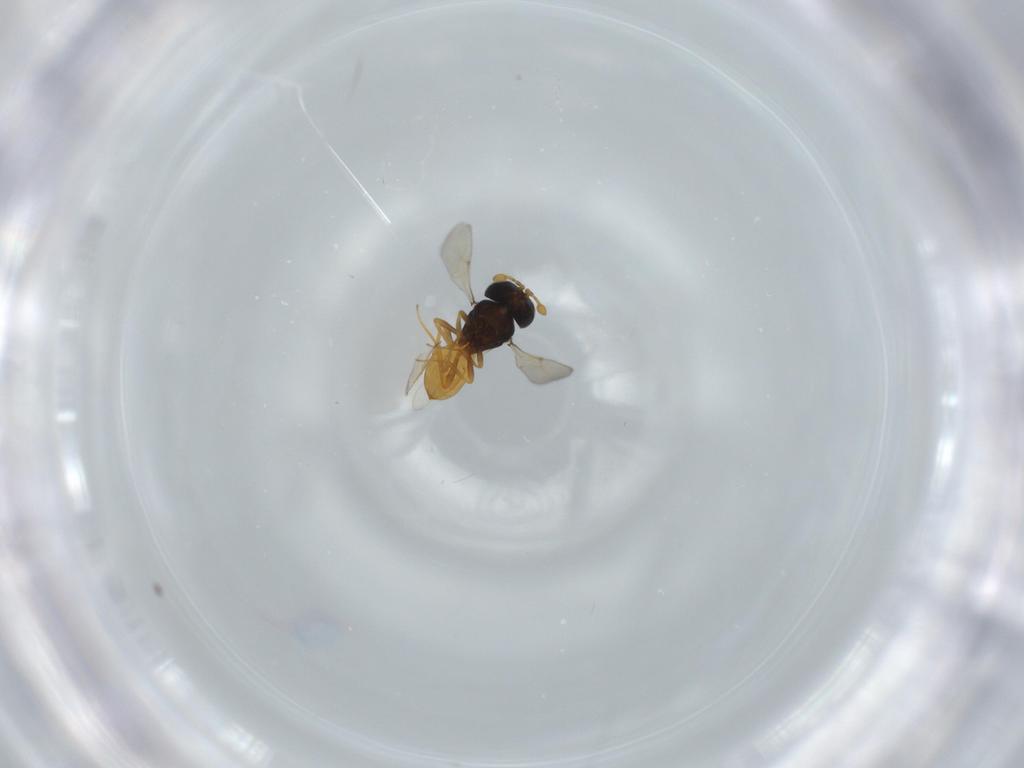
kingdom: Animalia
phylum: Arthropoda
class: Insecta
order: Hymenoptera
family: Scelionidae
